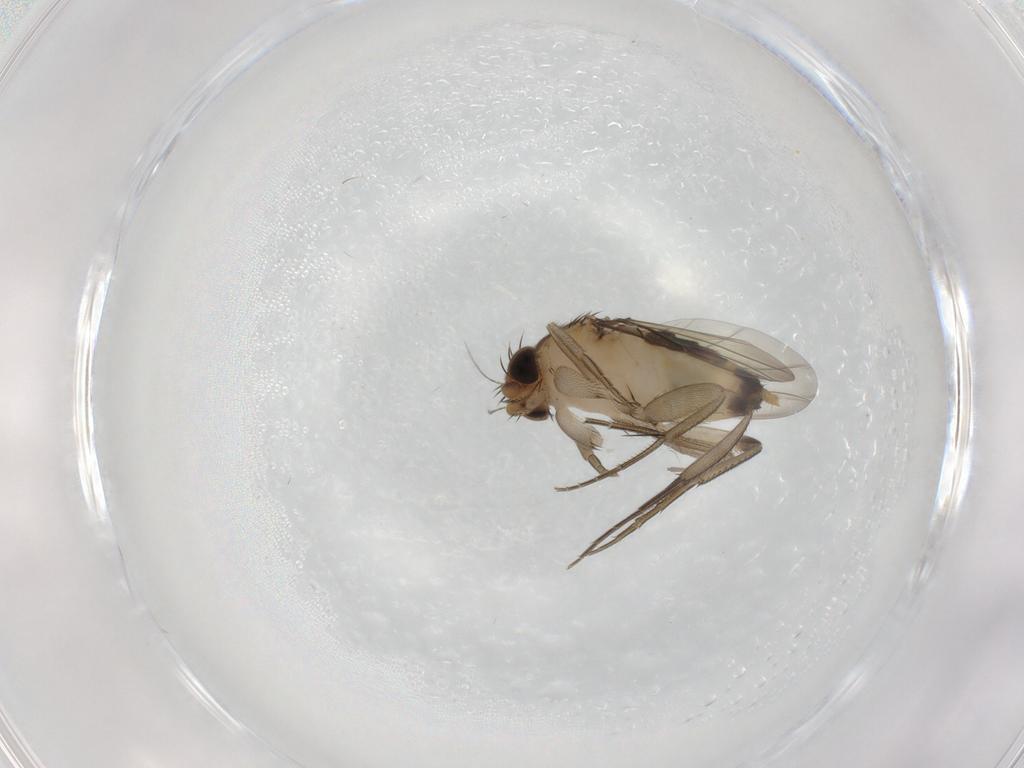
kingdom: Animalia
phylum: Arthropoda
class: Insecta
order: Diptera
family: Phoridae
